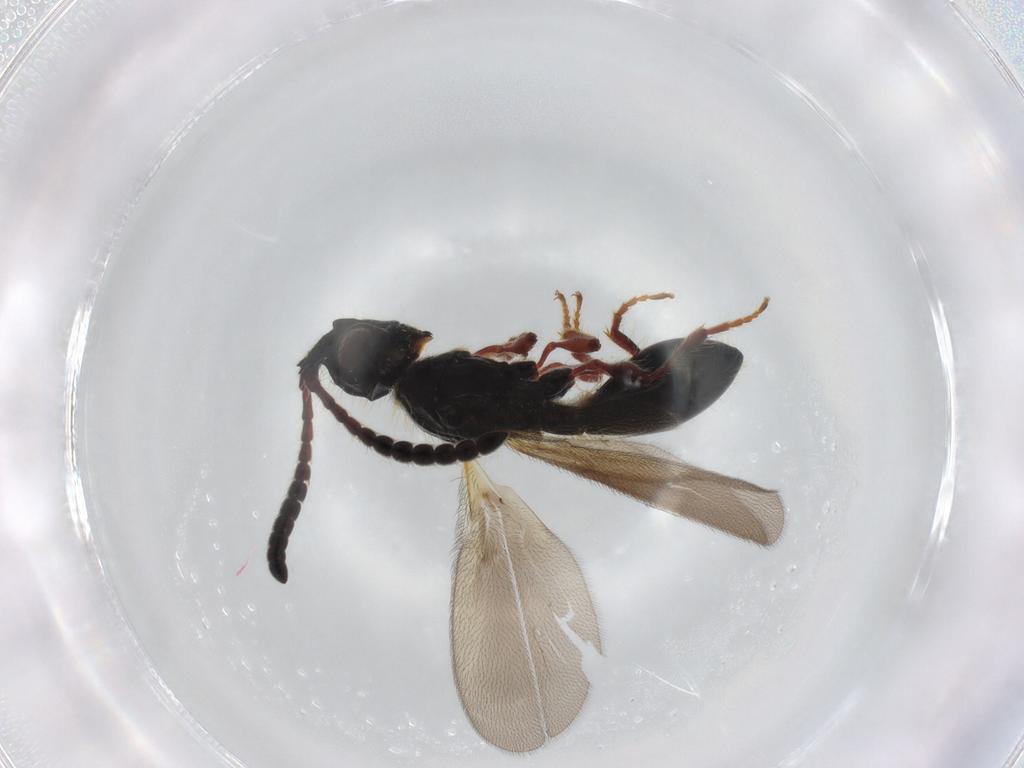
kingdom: Animalia
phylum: Arthropoda
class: Insecta
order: Hymenoptera
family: Diapriidae
